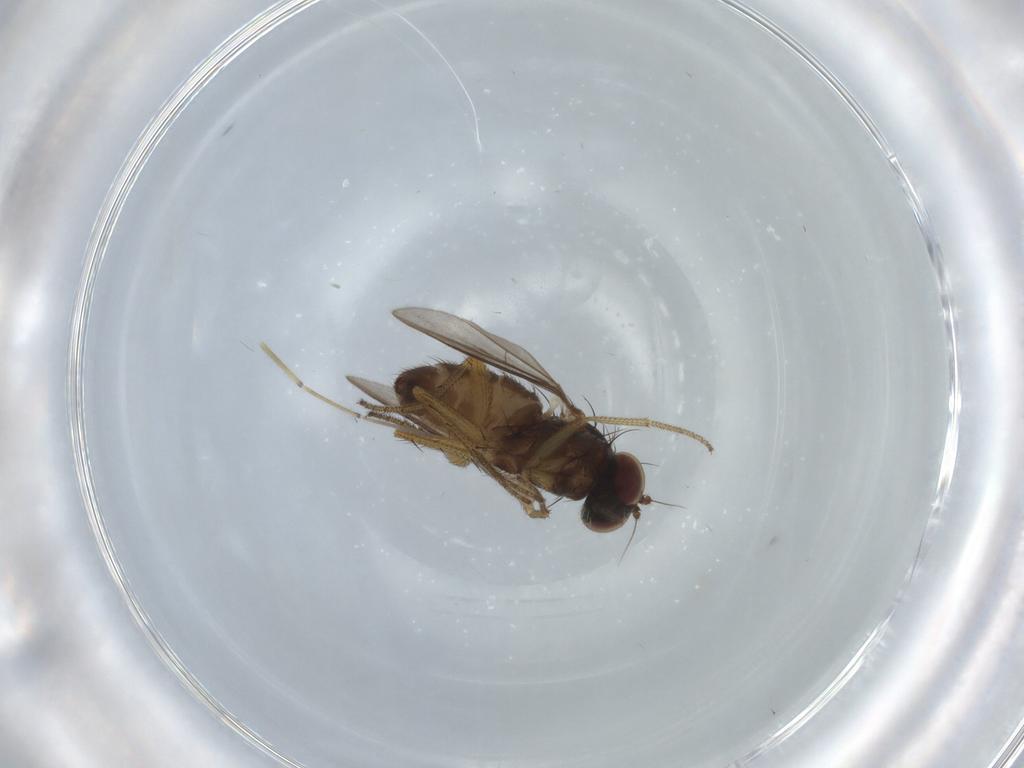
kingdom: Animalia
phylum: Arthropoda
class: Insecta
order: Diptera
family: Dolichopodidae
